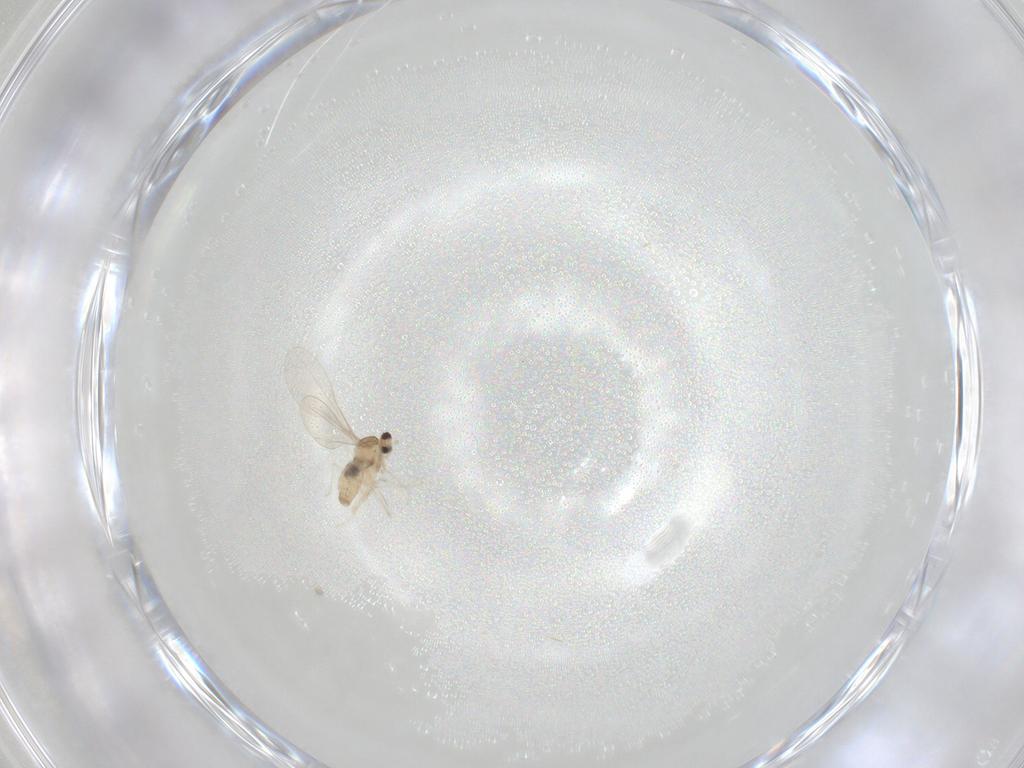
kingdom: Animalia
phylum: Arthropoda
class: Insecta
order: Diptera
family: Cecidomyiidae
